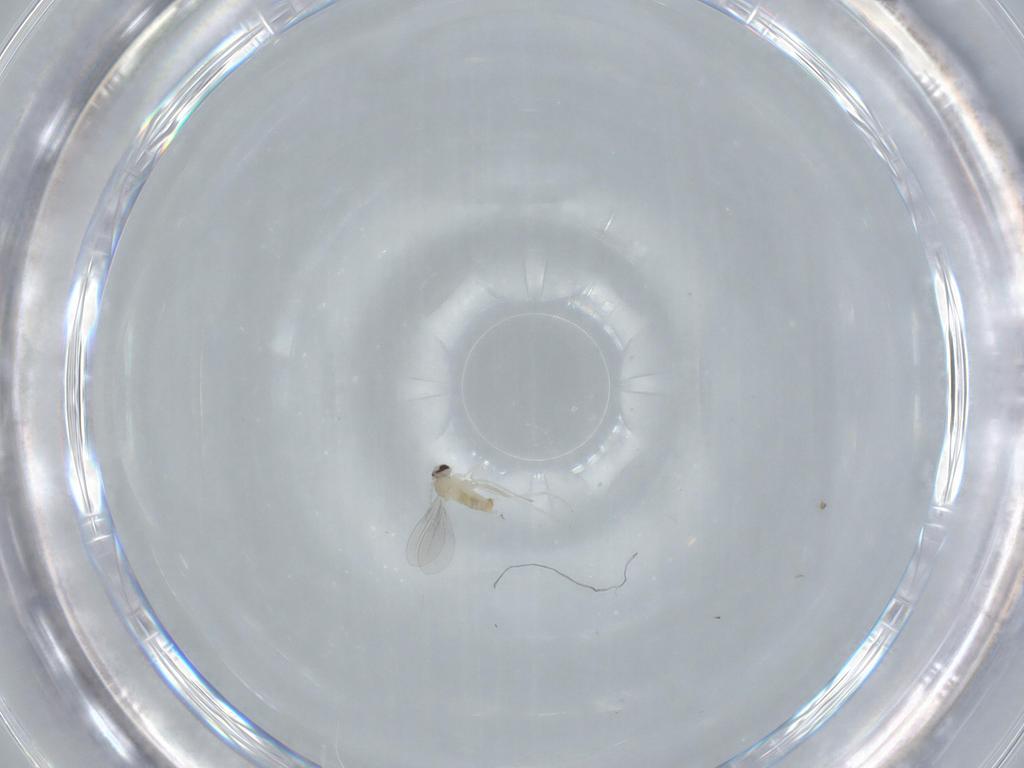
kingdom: Animalia
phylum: Arthropoda
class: Insecta
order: Diptera
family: Cecidomyiidae
